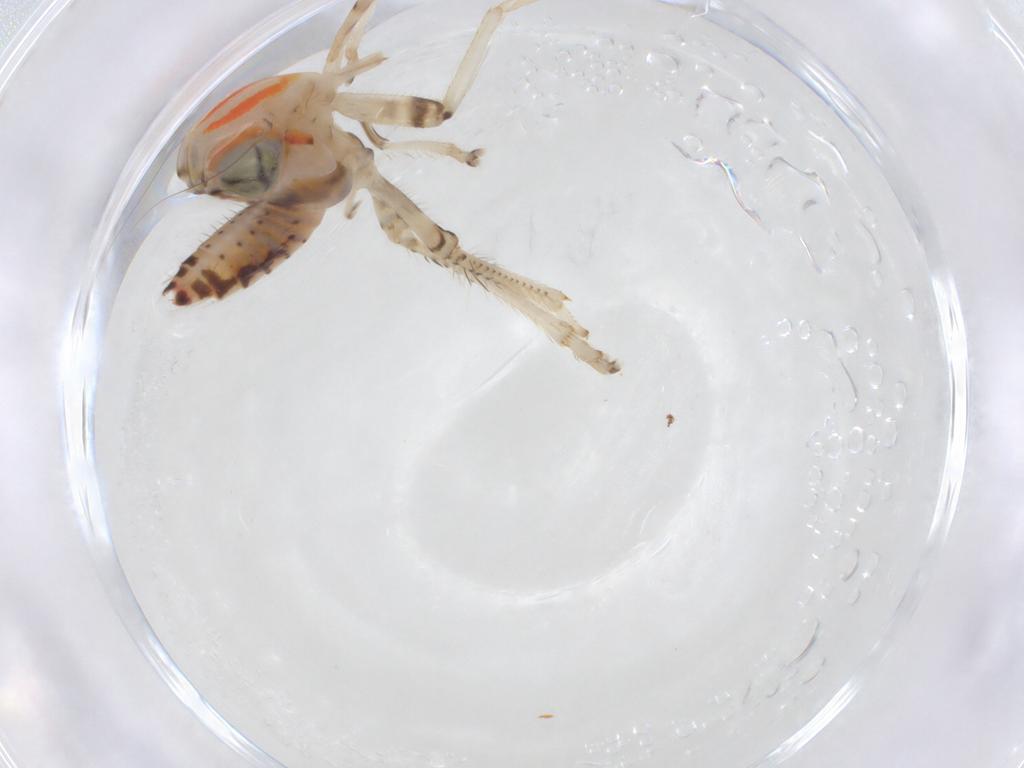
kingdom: Animalia
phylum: Arthropoda
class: Insecta
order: Hemiptera
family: Cicadellidae
